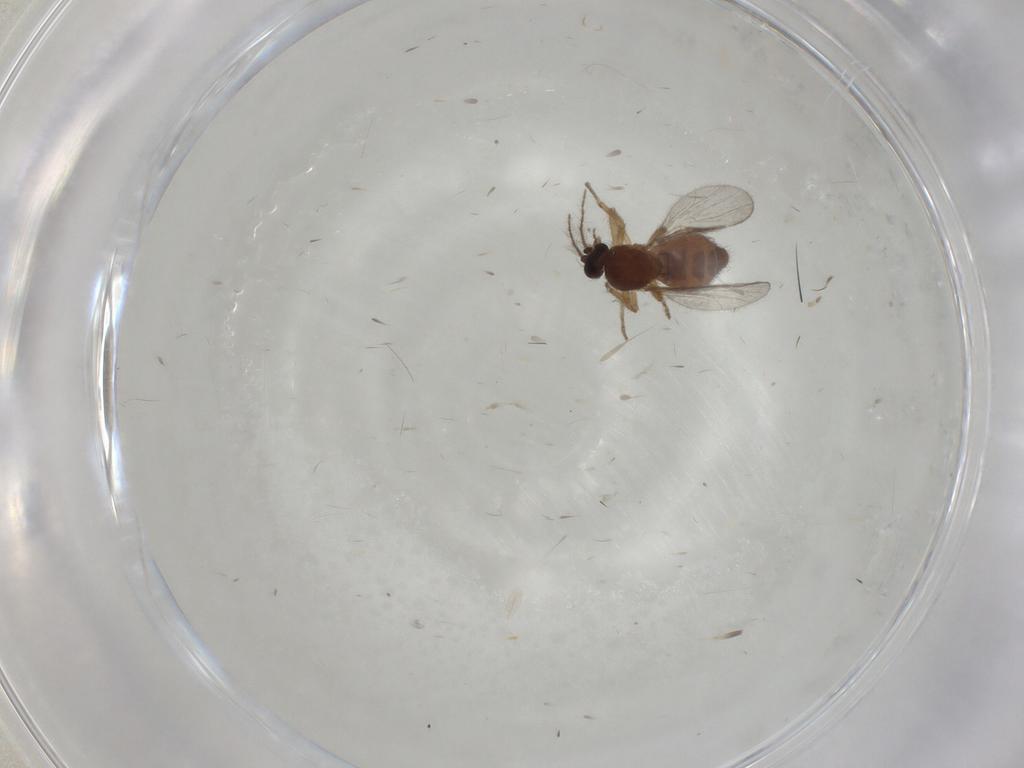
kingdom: Animalia
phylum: Arthropoda
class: Insecta
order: Diptera
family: Ceratopogonidae
